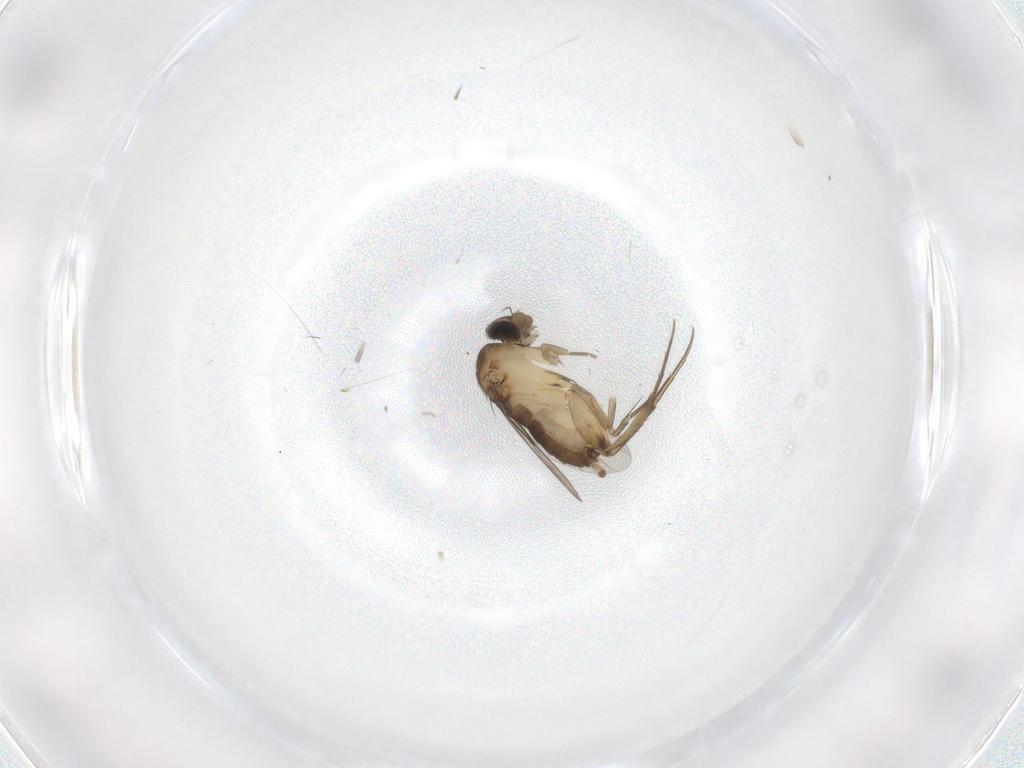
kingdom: Animalia
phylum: Arthropoda
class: Insecta
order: Diptera
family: Phoridae
